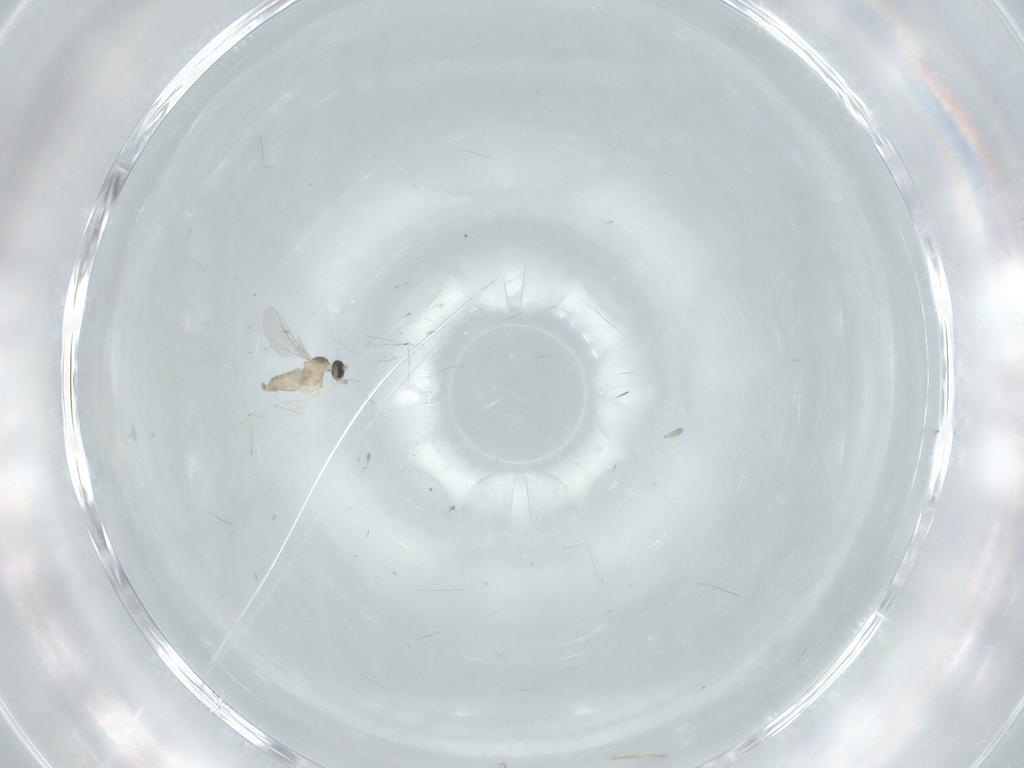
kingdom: Animalia
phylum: Arthropoda
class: Insecta
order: Diptera
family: Cecidomyiidae
